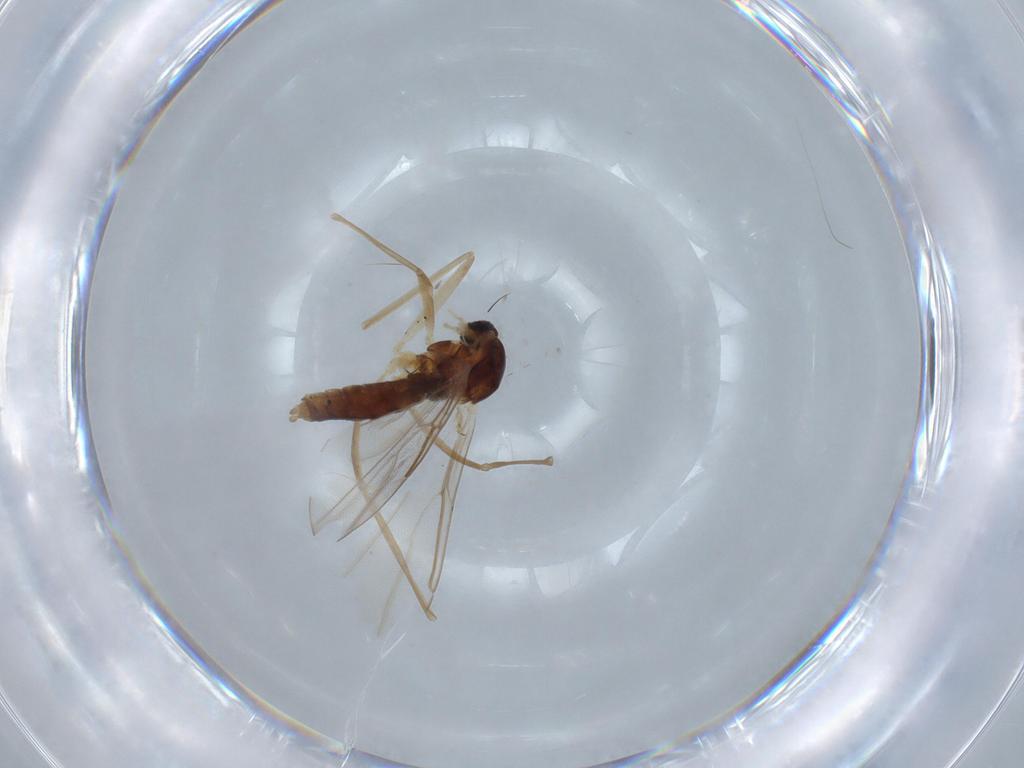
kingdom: Animalia
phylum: Arthropoda
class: Insecta
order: Diptera
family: Cecidomyiidae
